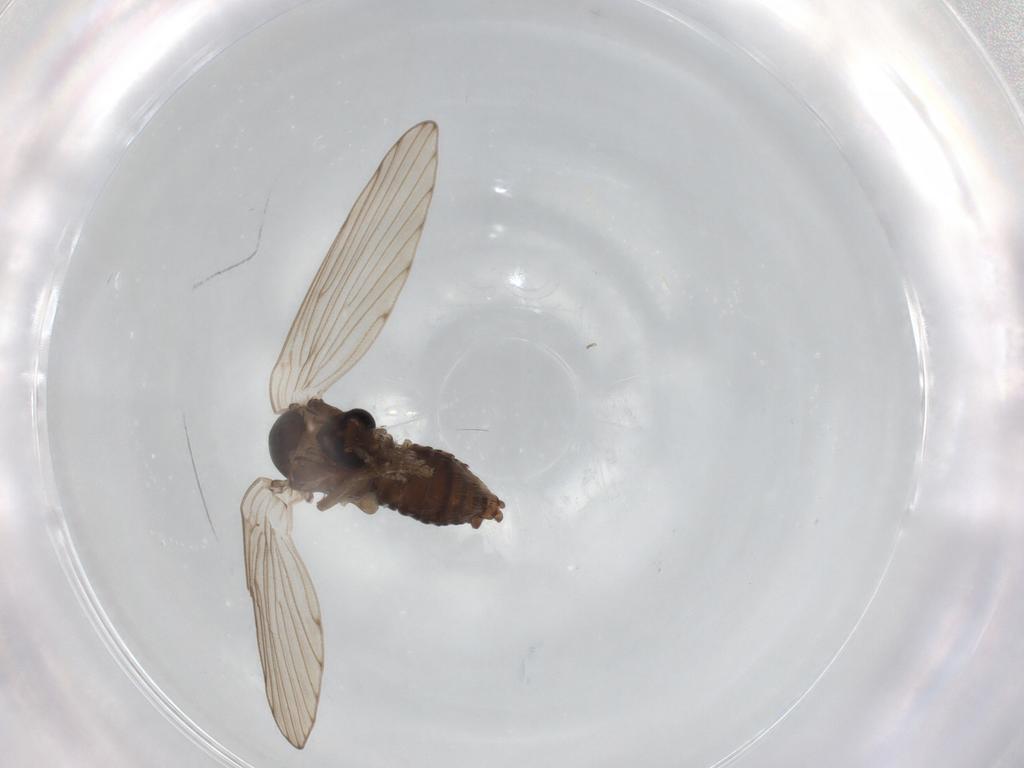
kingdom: Animalia
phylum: Arthropoda
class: Insecta
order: Diptera
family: Psychodidae
